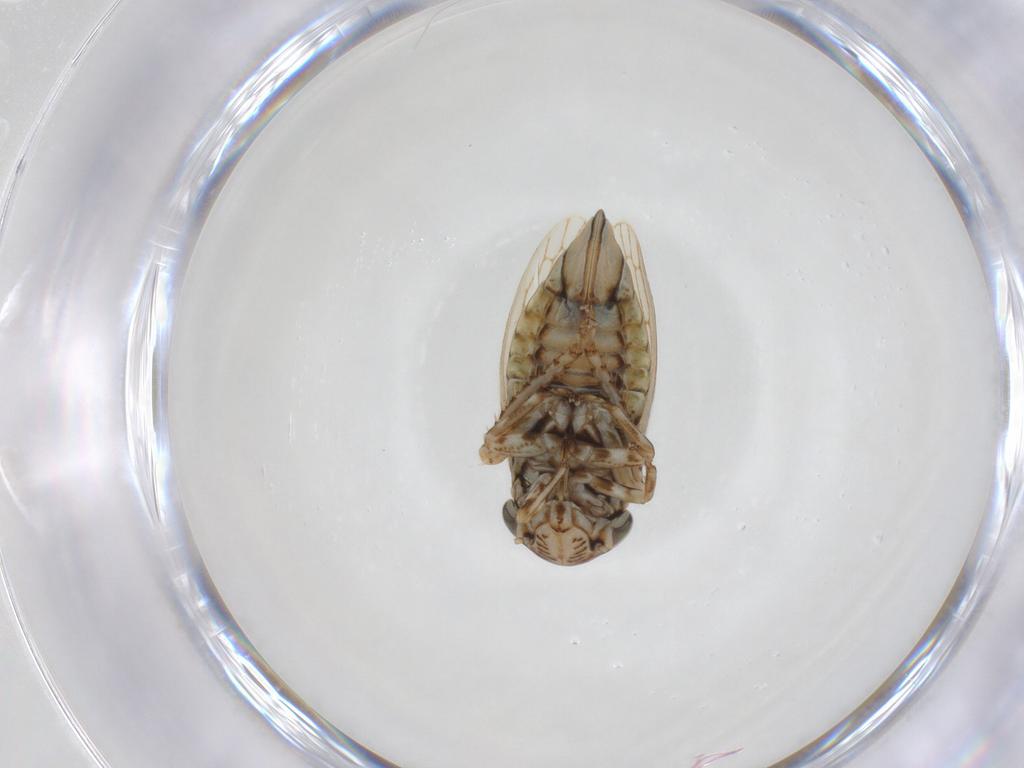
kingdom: Animalia
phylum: Arthropoda
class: Insecta
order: Hemiptera
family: Cicadellidae
